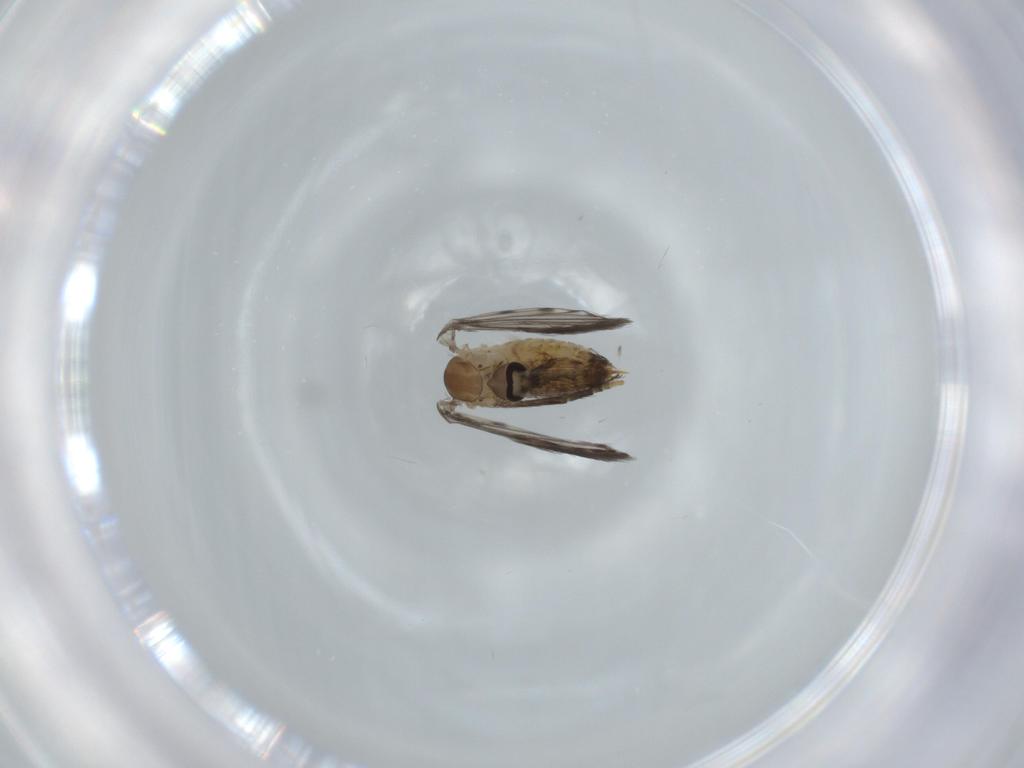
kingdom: Animalia
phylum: Arthropoda
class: Insecta
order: Diptera
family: Psychodidae
